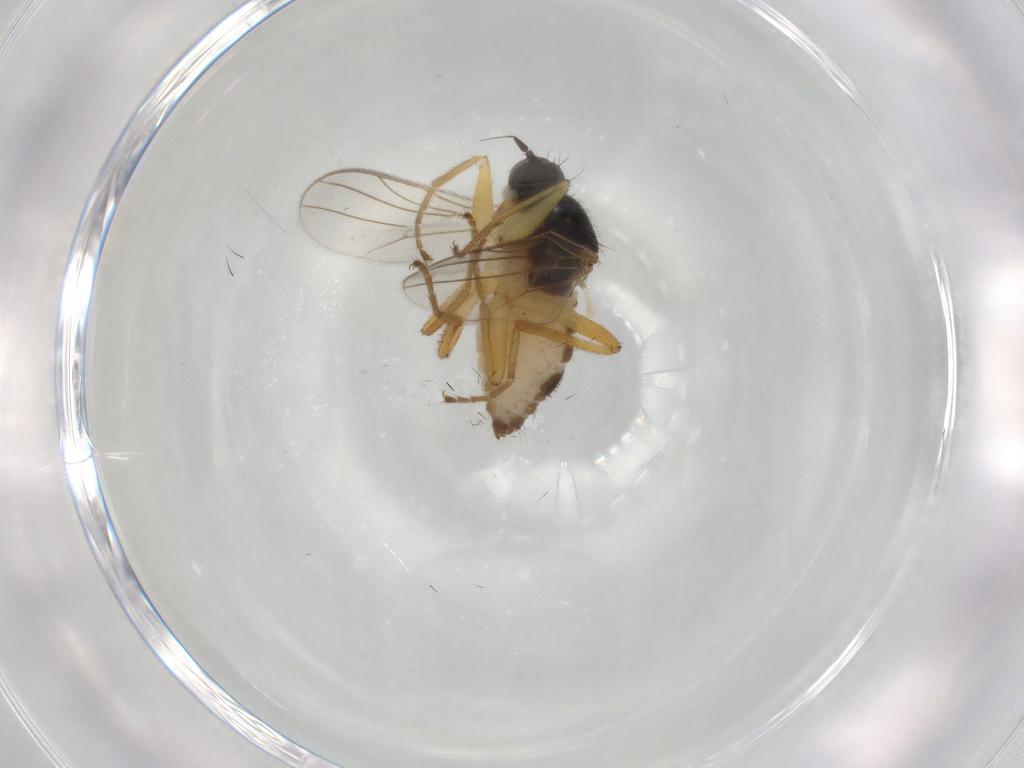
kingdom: Animalia
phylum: Arthropoda
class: Insecta
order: Diptera
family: Hybotidae
